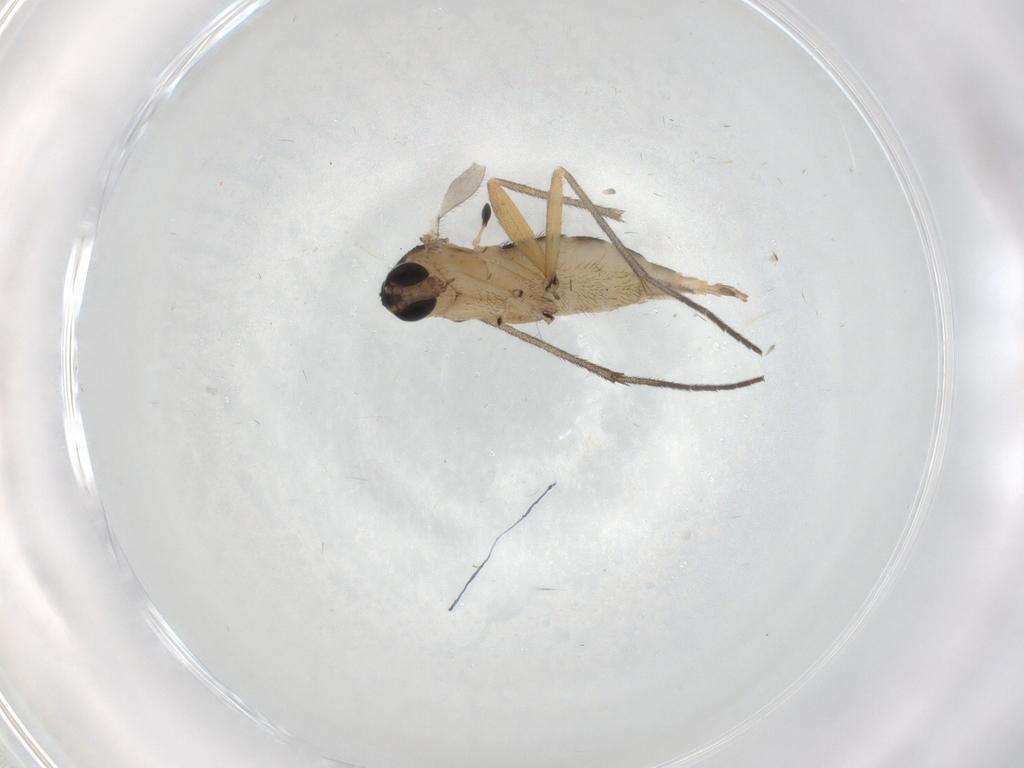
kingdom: Animalia
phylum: Arthropoda
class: Insecta
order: Diptera
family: Sciaridae
